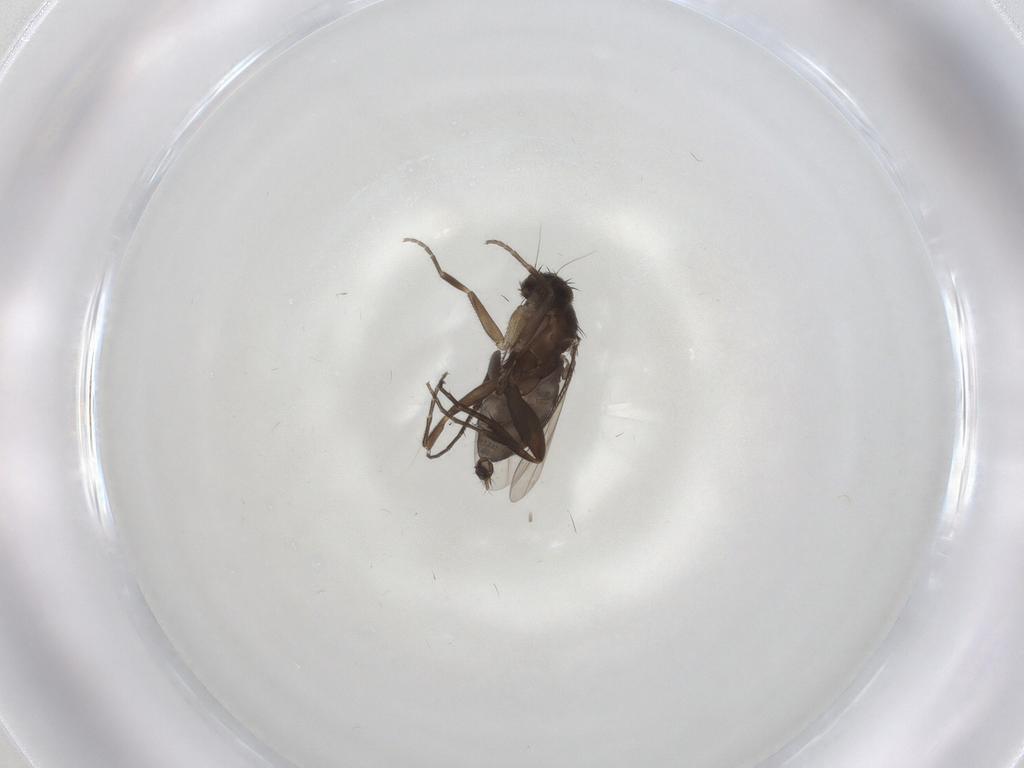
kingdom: Animalia
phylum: Arthropoda
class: Insecta
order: Diptera
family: Phoridae
